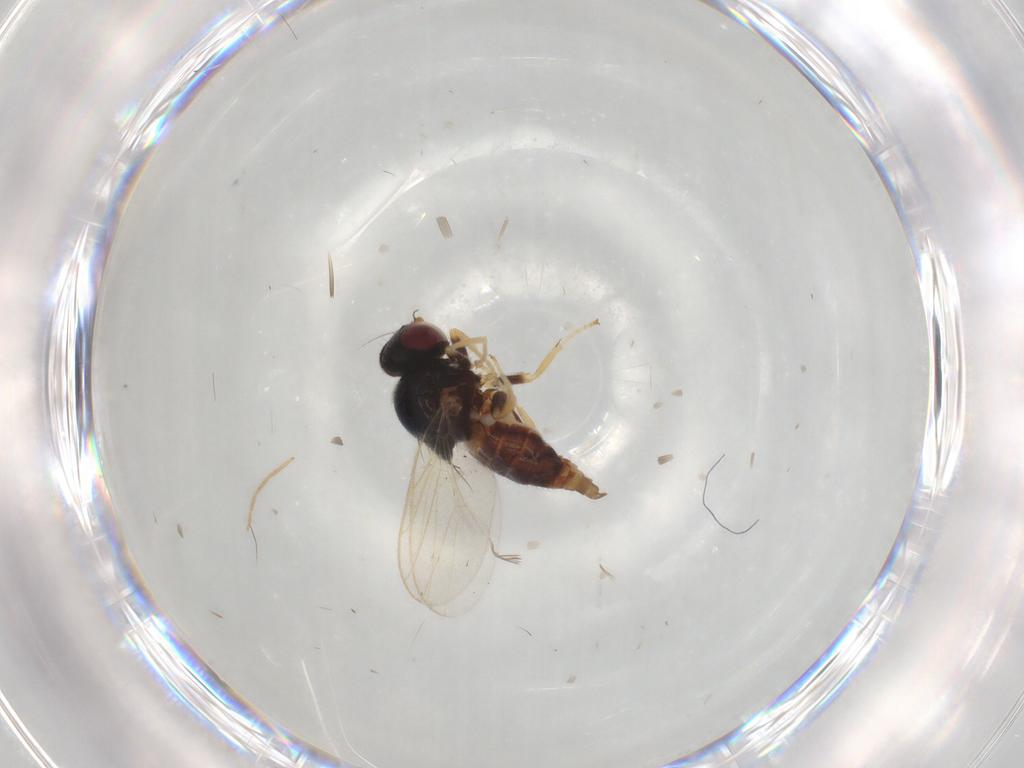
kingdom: Animalia
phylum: Arthropoda
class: Insecta
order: Diptera
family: Chloropidae
